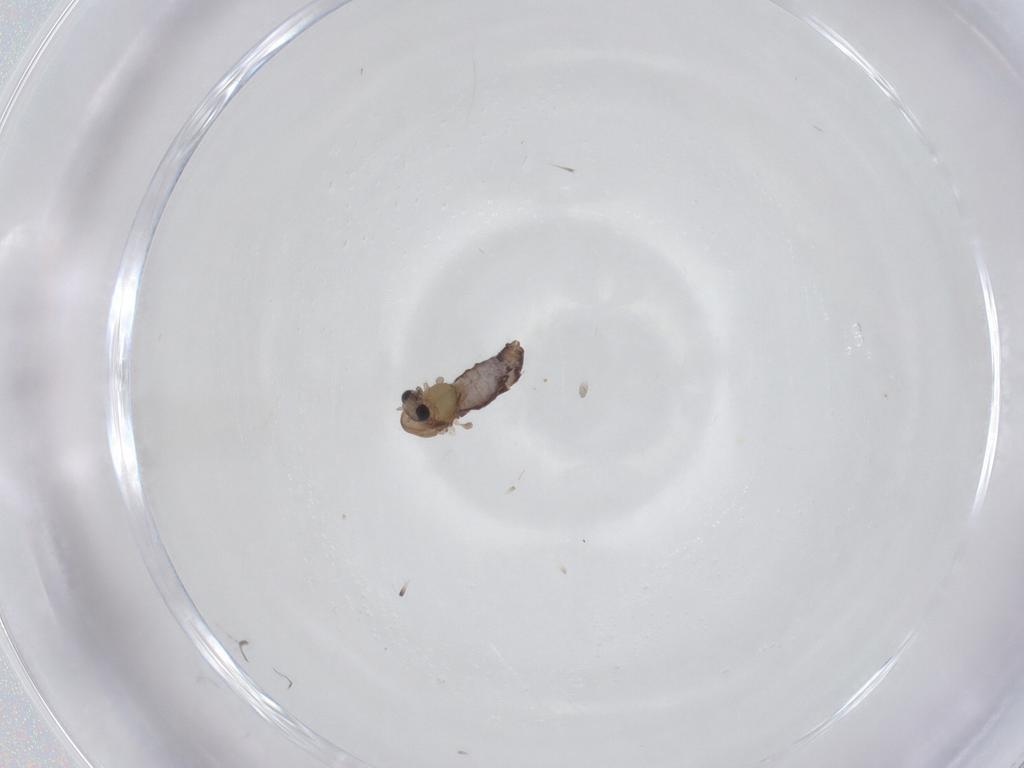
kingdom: Animalia
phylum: Arthropoda
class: Insecta
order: Diptera
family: Chironomidae
